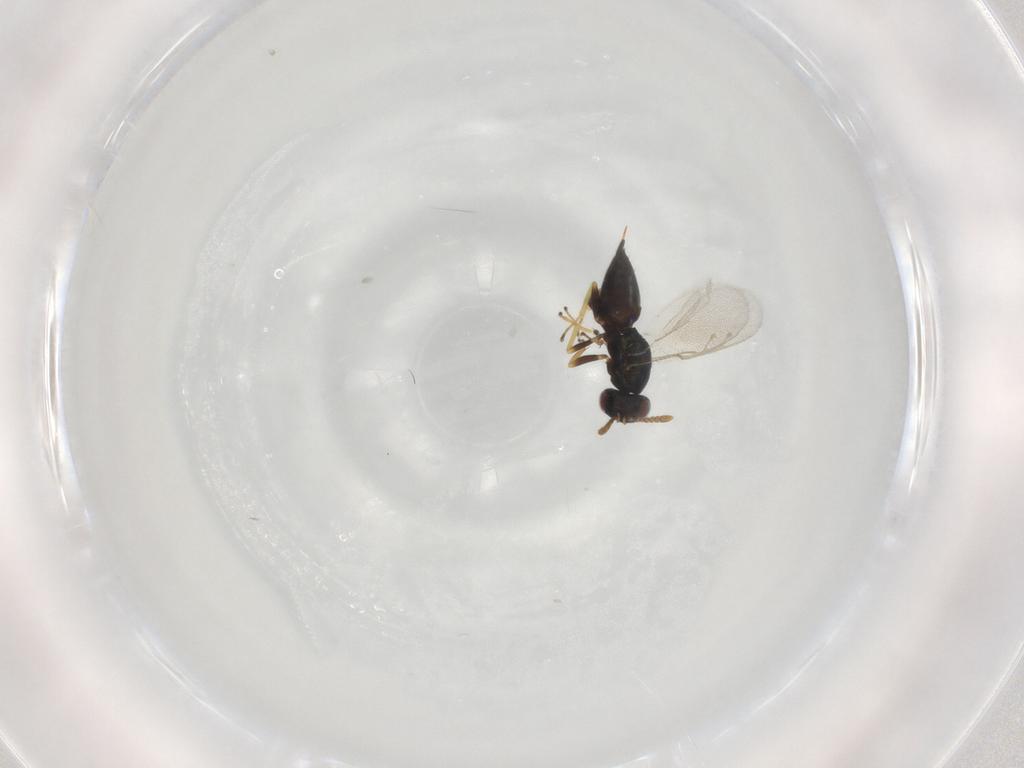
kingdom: Animalia
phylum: Arthropoda
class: Insecta
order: Hymenoptera
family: Pteromalidae
